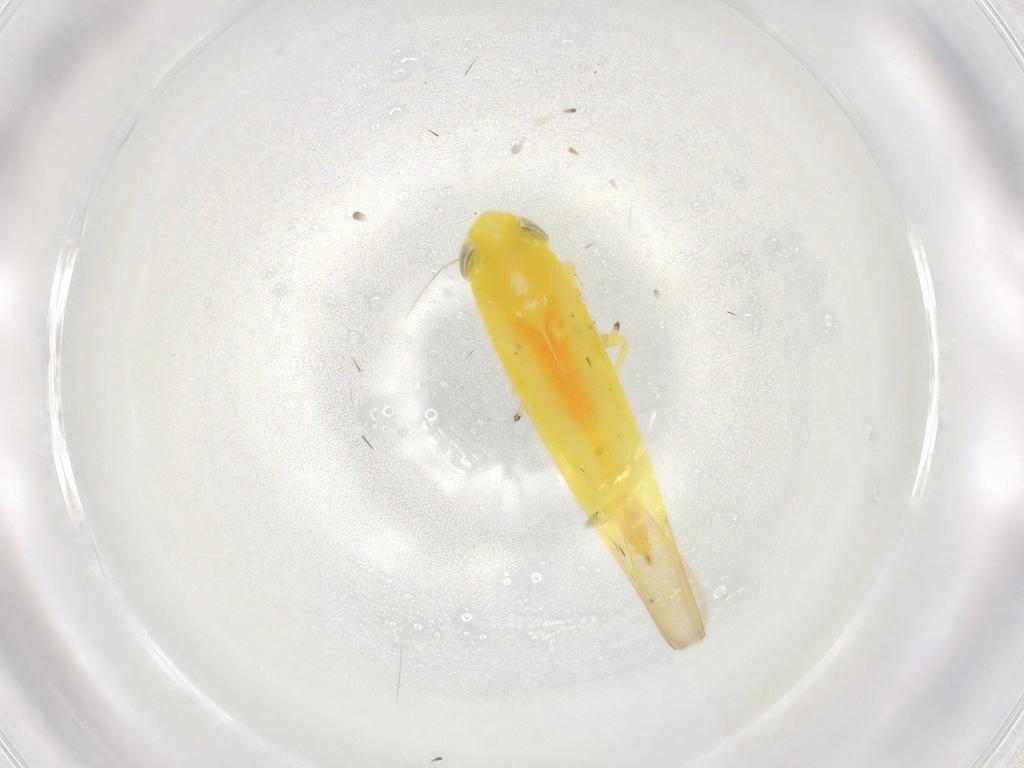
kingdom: Animalia
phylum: Arthropoda
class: Insecta
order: Hemiptera
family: Cicadellidae
